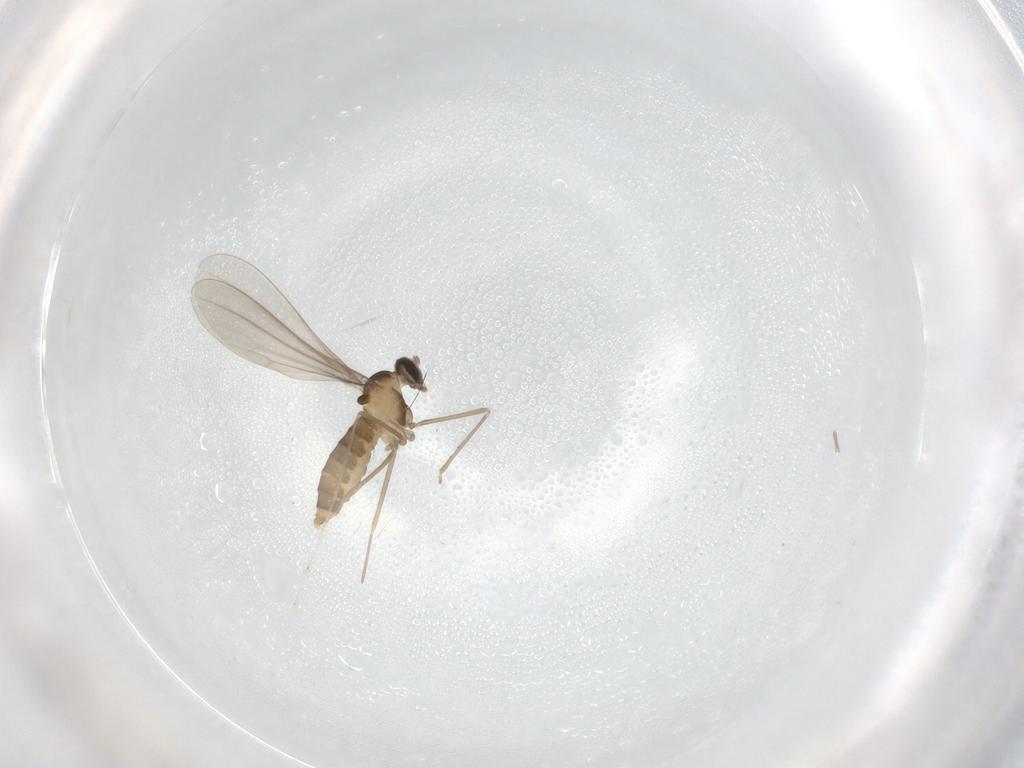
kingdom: Animalia
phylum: Arthropoda
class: Insecta
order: Diptera
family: Cecidomyiidae
